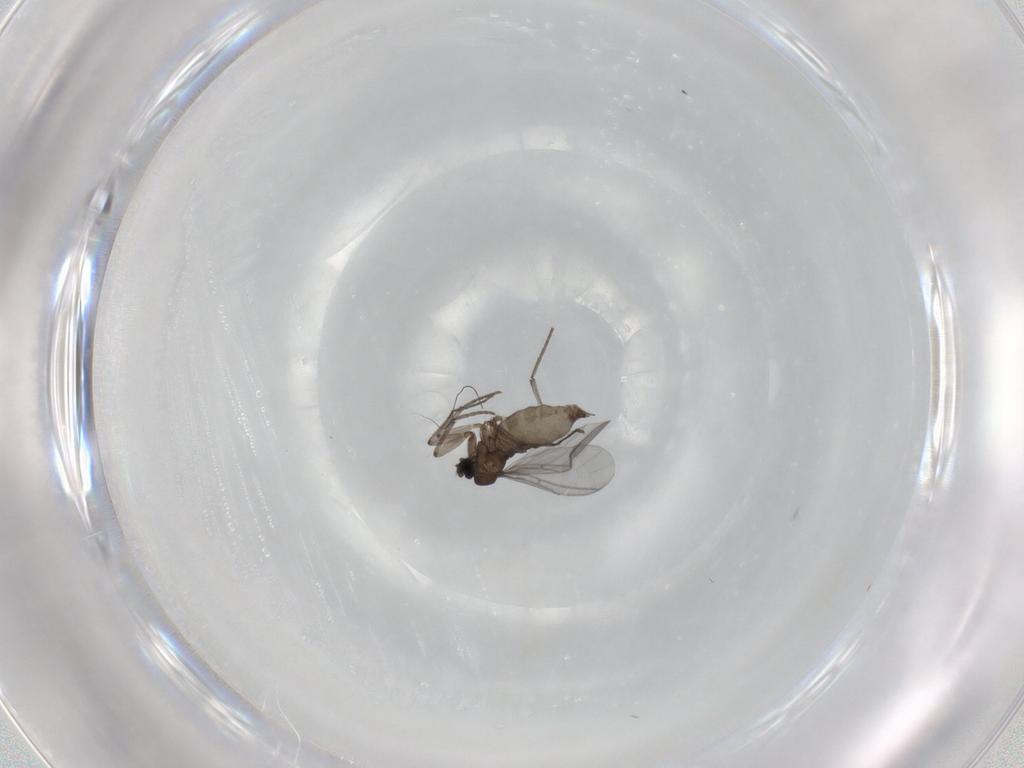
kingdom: Animalia
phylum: Arthropoda
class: Insecta
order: Diptera
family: Sciaridae
